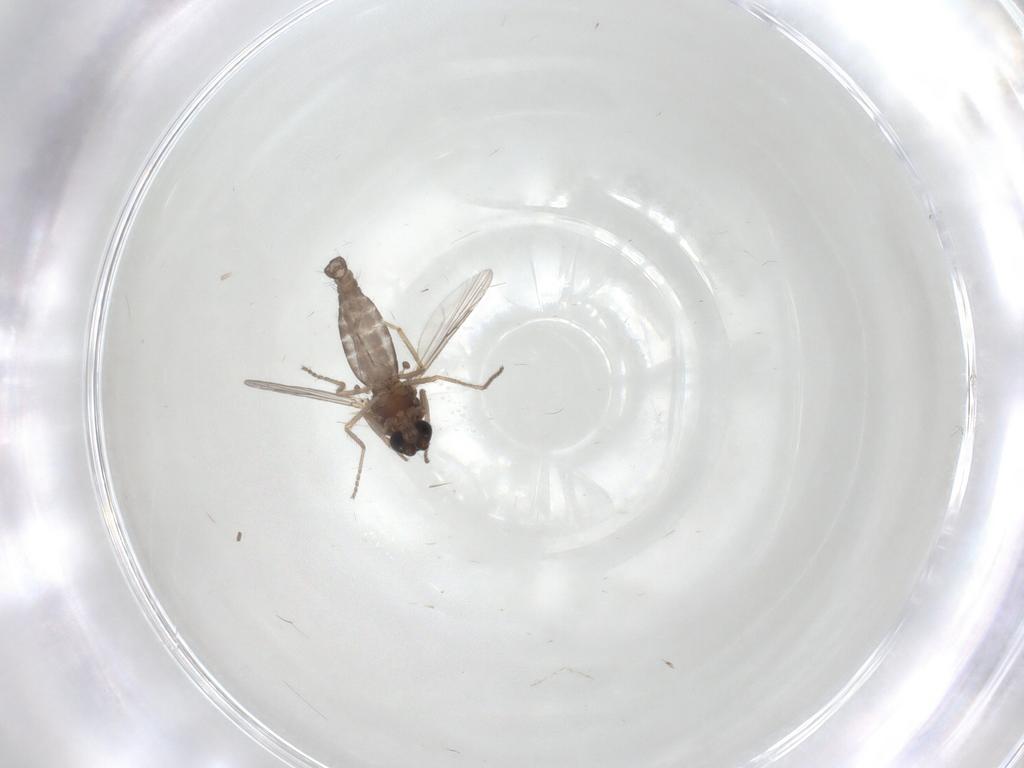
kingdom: Animalia
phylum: Arthropoda
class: Insecta
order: Diptera
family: Ceratopogonidae
